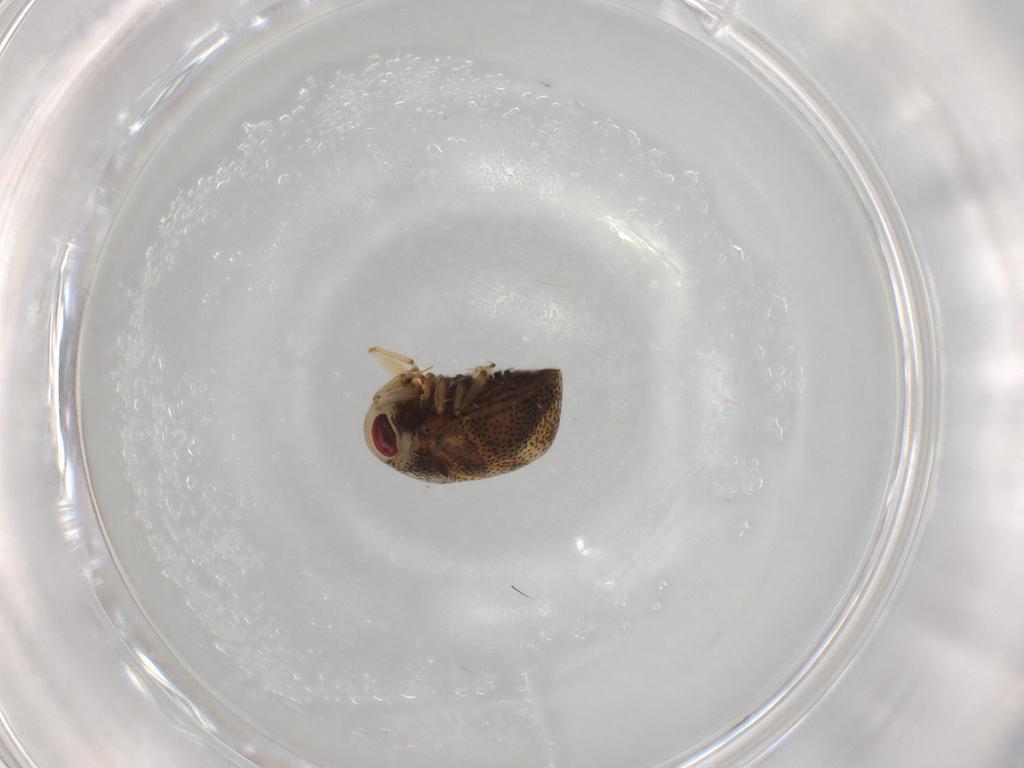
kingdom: Animalia
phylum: Arthropoda
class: Insecta
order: Hemiptera
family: Pleidae
